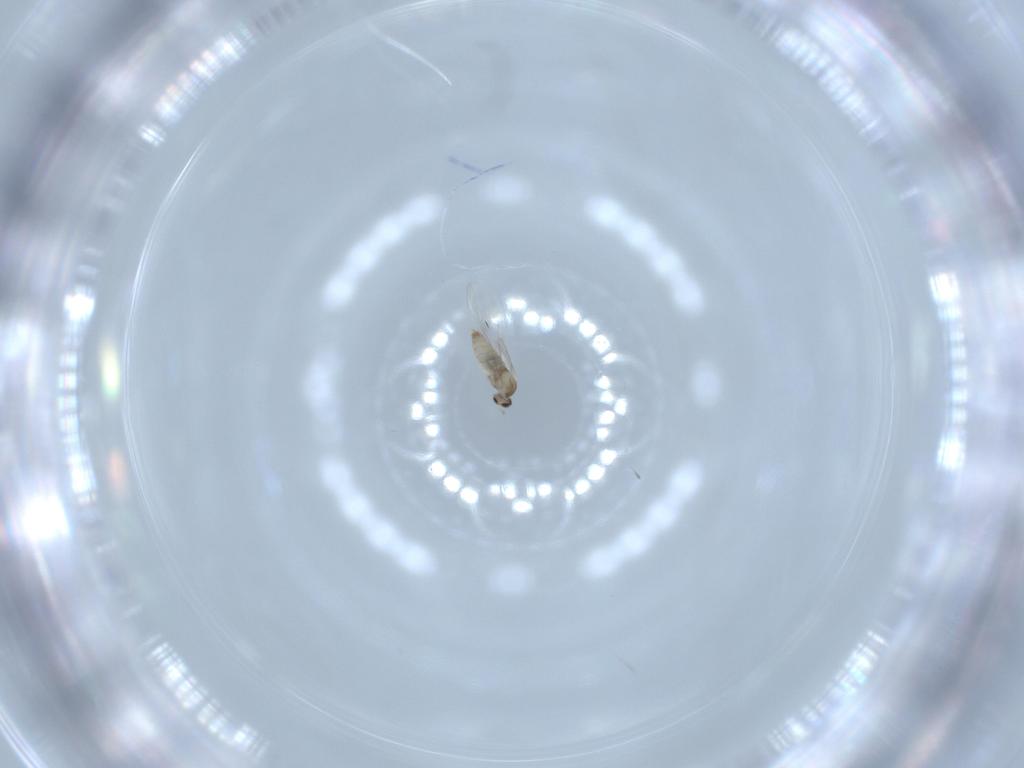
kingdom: Animalia
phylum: Arthropoda
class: Insecta
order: Diptera
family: Cecidomyiidae
